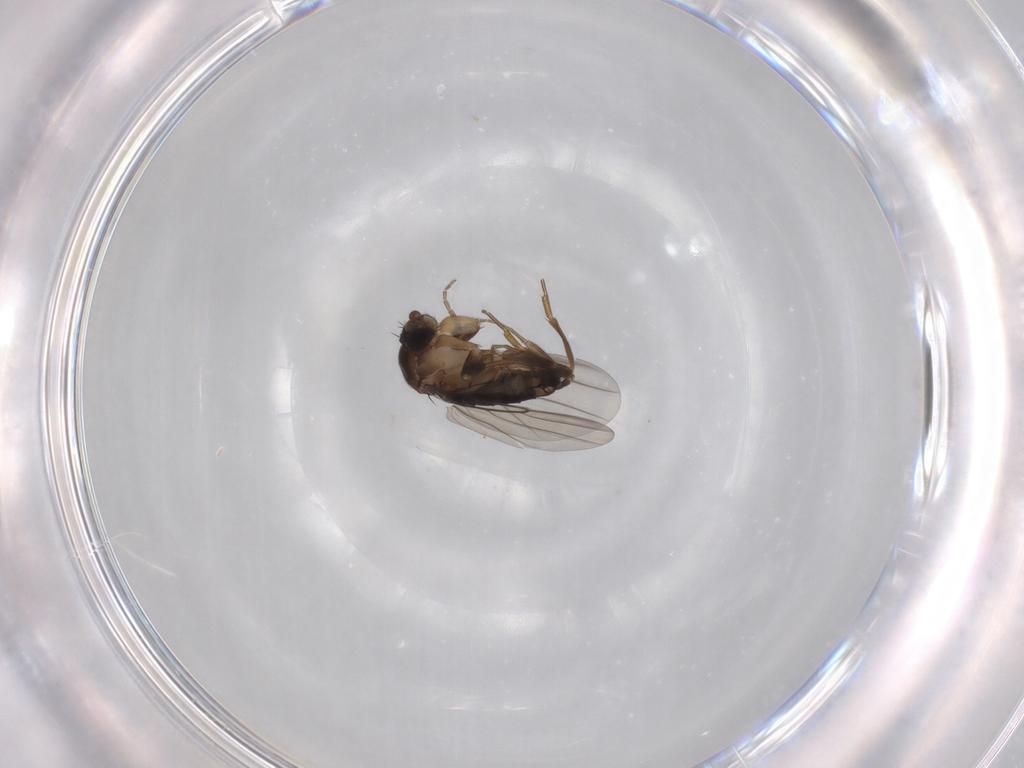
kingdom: Animalia
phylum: Arthropoda
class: Insecta
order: Diptera
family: Phoridae
